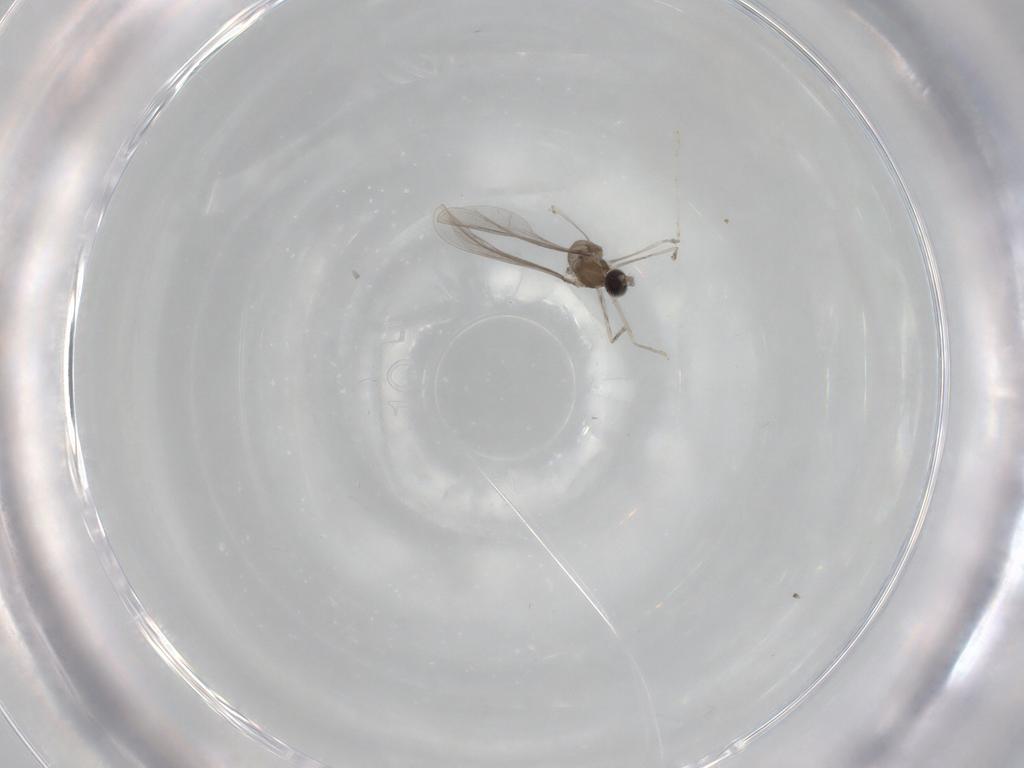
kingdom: Animalia
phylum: Arthropoda
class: Insecta
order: Diptera
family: Cecidomyiidae
